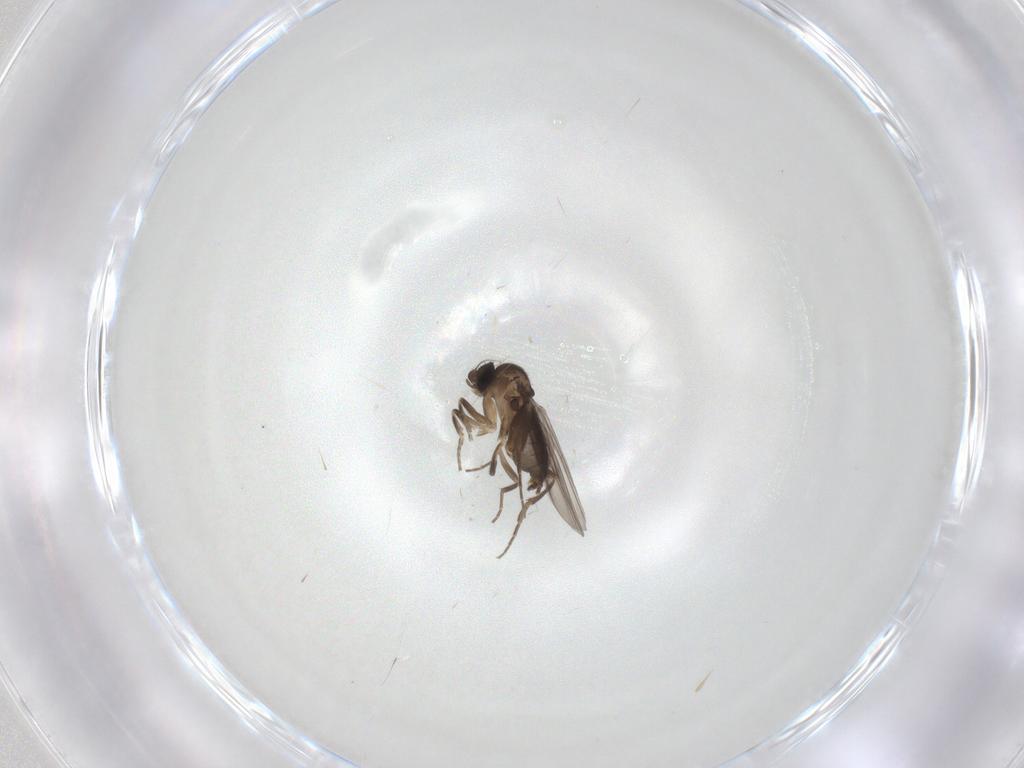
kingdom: Animalia
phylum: Arthropoda
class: Insecta
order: Diptera
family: Phoridae
